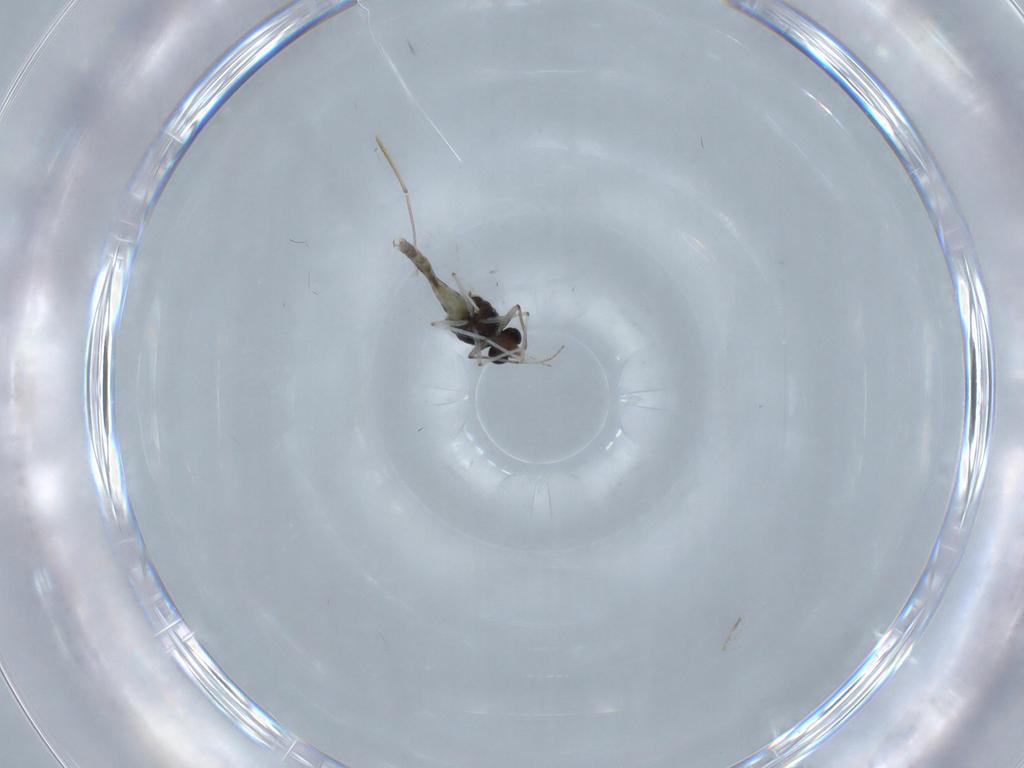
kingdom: Animalia
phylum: Arthropoda
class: Insecta
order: Diptera
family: Chironomidae
